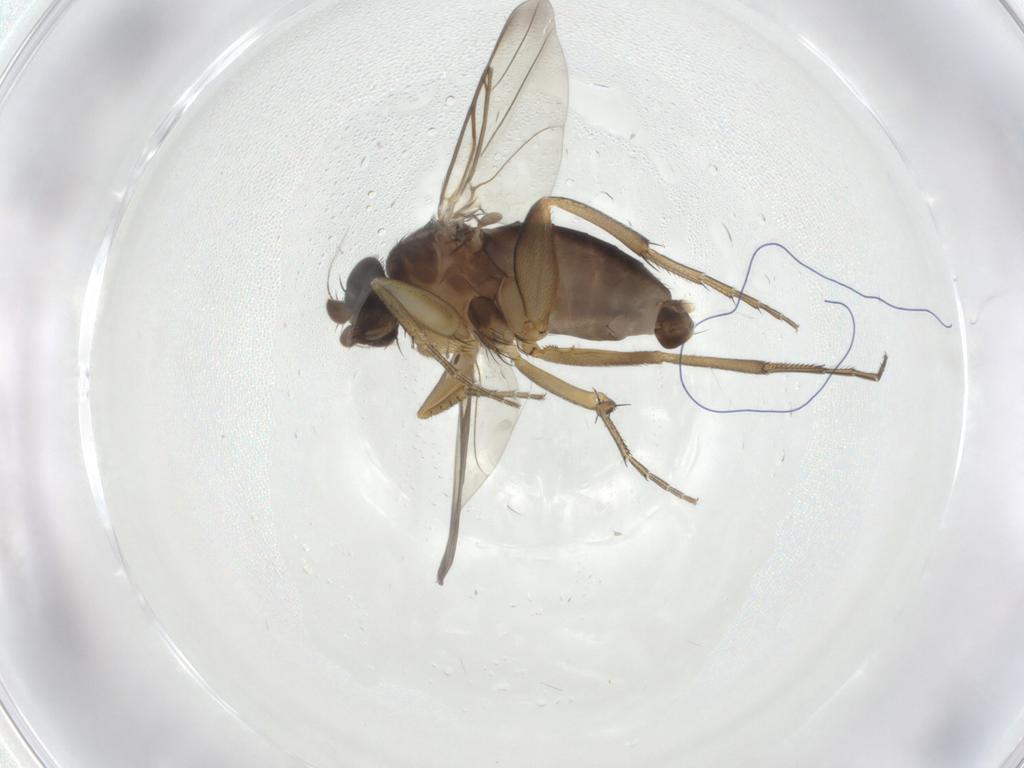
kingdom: Animalia
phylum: Arthropoda
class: Insecta
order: Diptera
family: Phoridae
